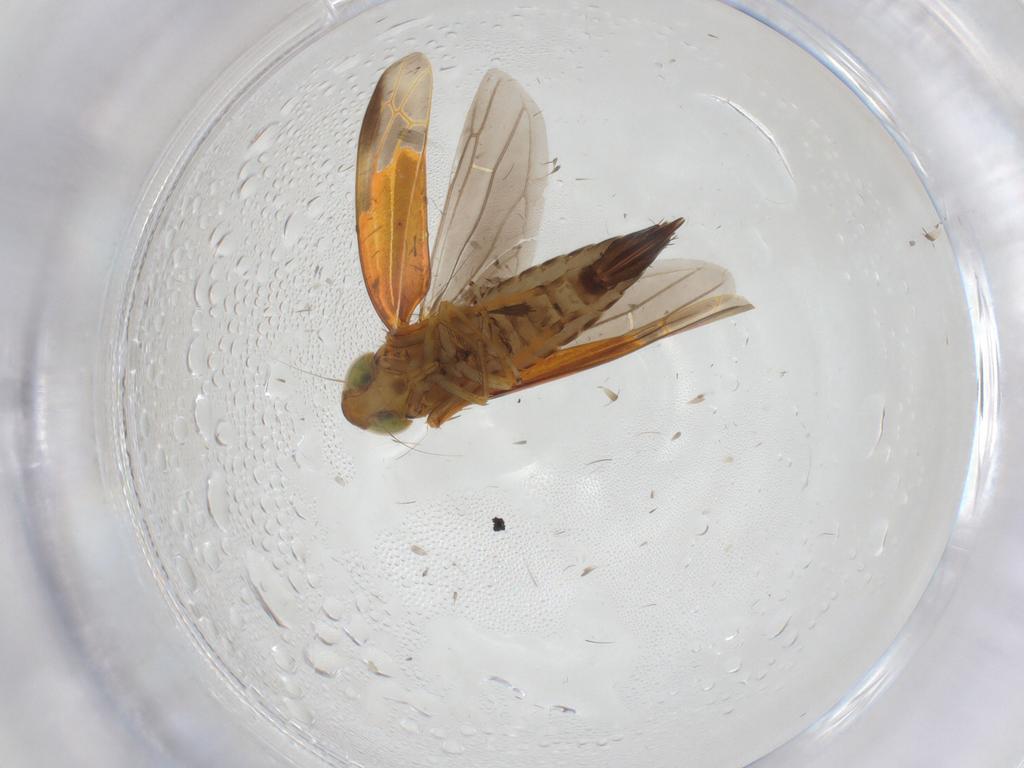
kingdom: Animalia
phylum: Arthropoda
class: Insecta
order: Hemiptera
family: Cicadellidae
